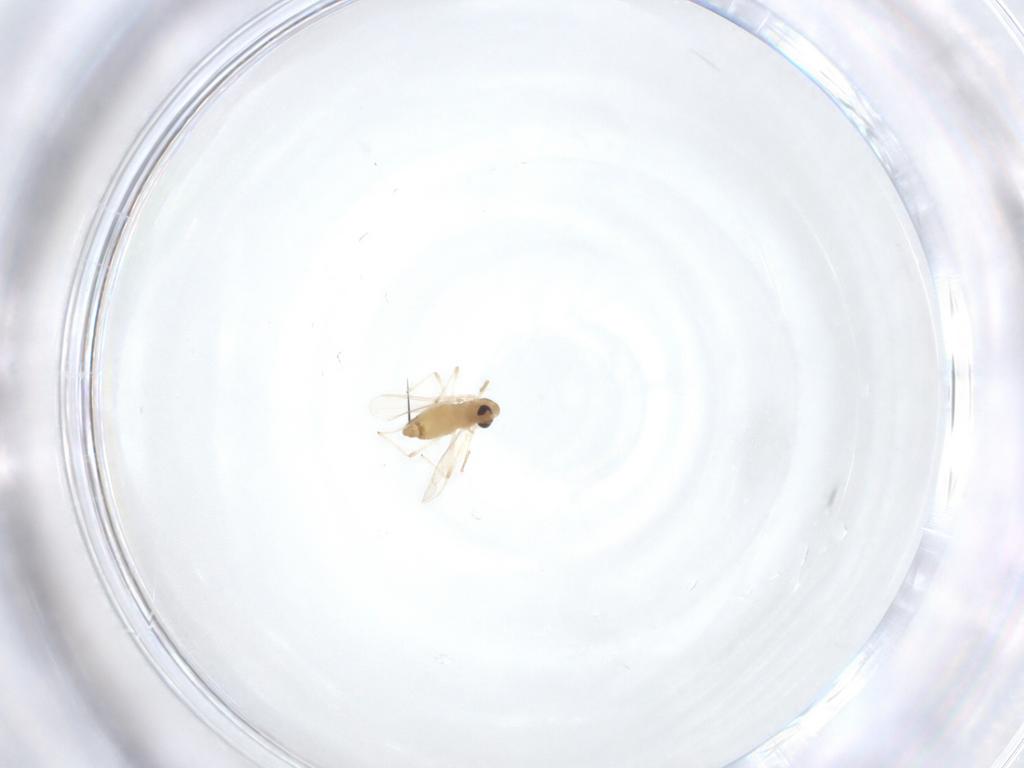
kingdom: Animalia
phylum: Arthropoda
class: Insecta
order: Diptera
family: Chironomidae
